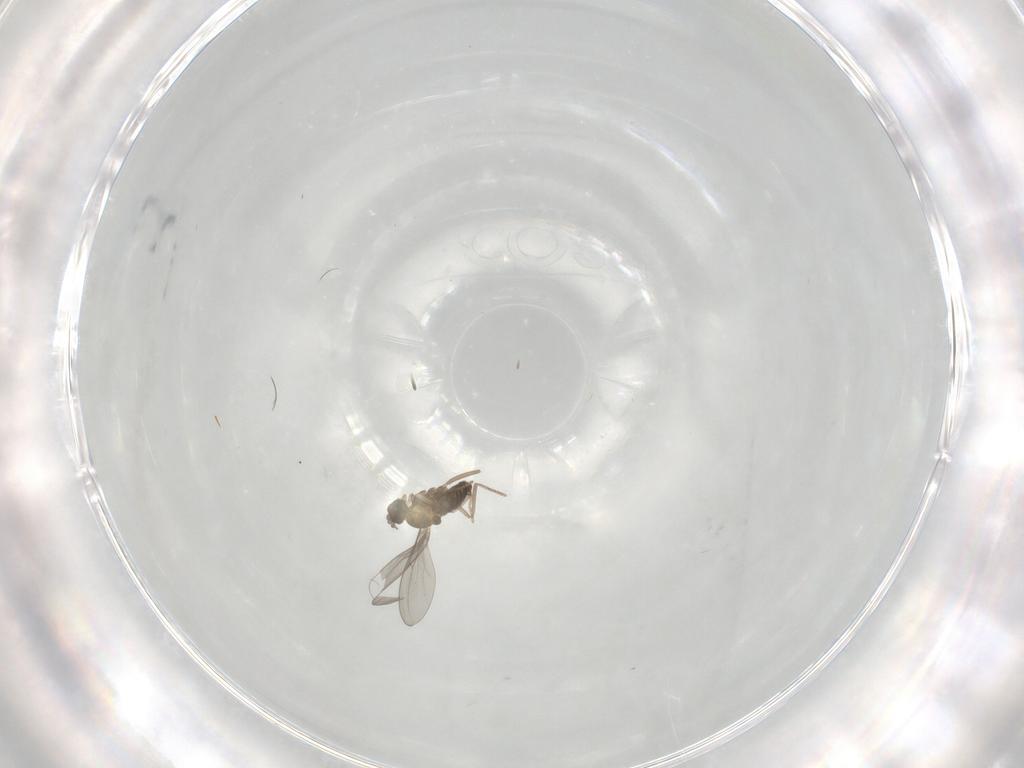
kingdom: Animalia
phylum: Arthropoda
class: Insecta
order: Diptera
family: Cecidomyiidae
